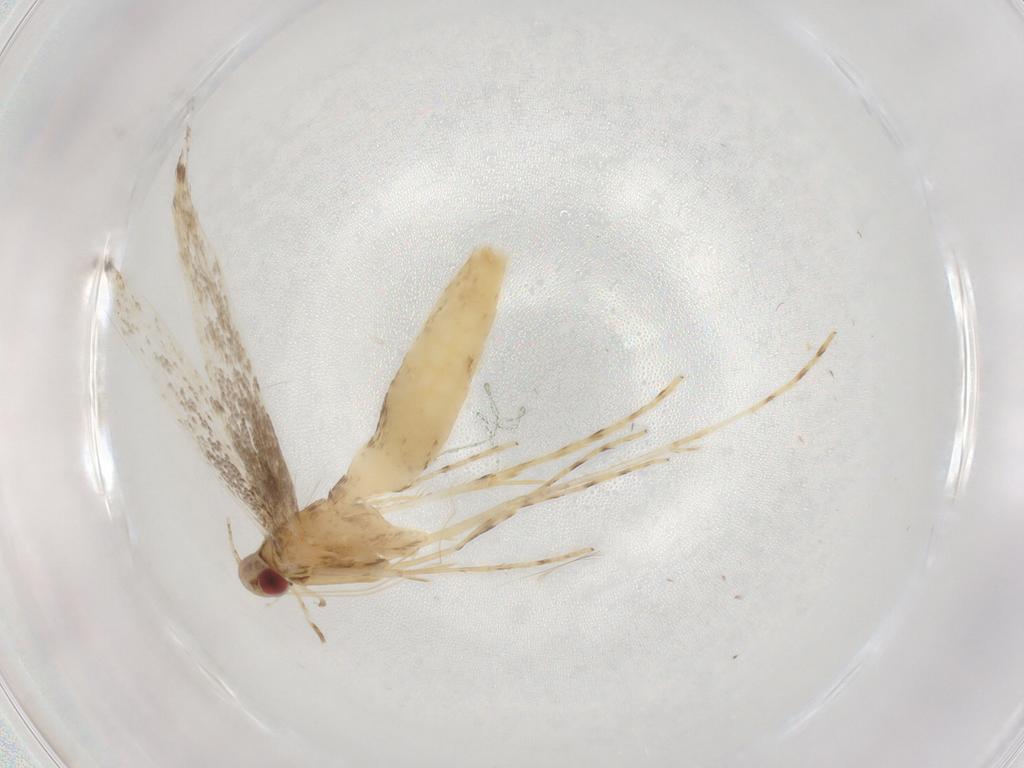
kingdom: Animalia
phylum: Arthropoda
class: Insecta
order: Lepidoptera
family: Gracillariidae
